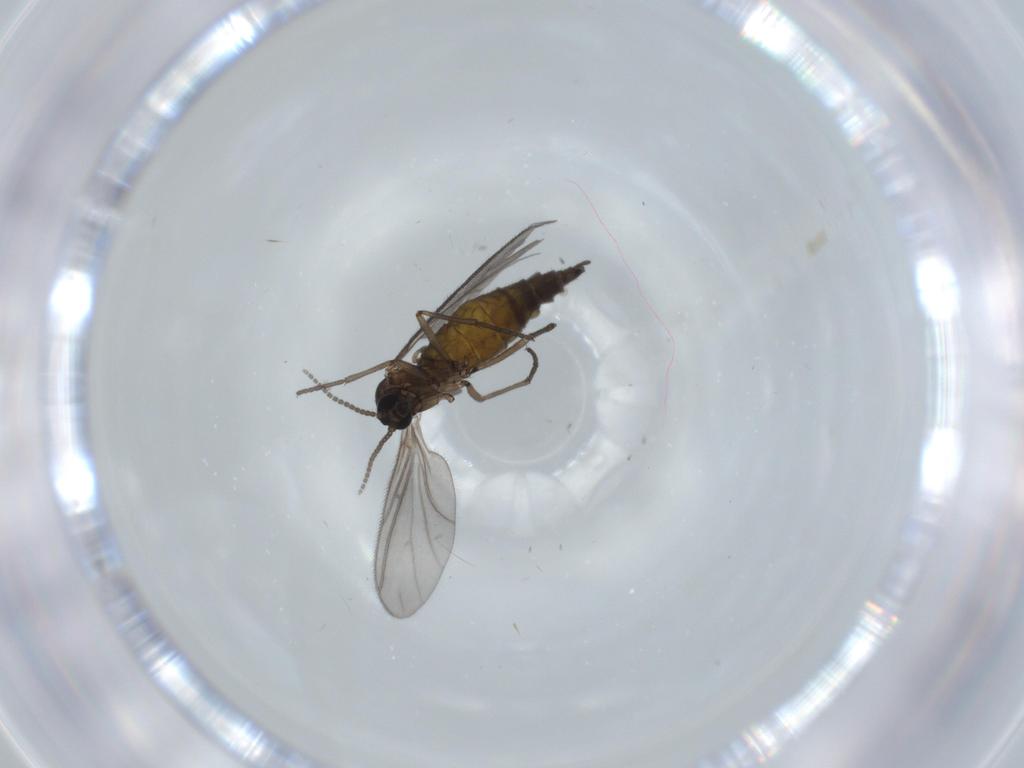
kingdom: Animalia
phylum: Arthropoda
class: Insecta
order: Diptera
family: Sciaridae
